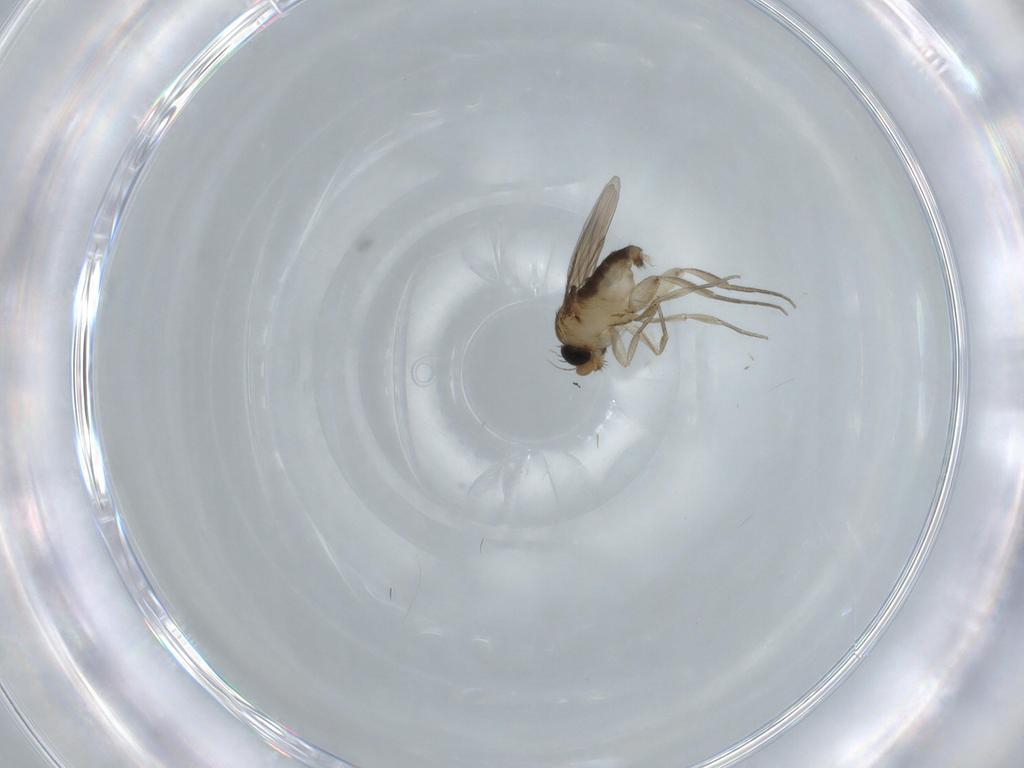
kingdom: Animalia
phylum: Arthropoda
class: Insecta
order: Diptera
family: Phoridae
